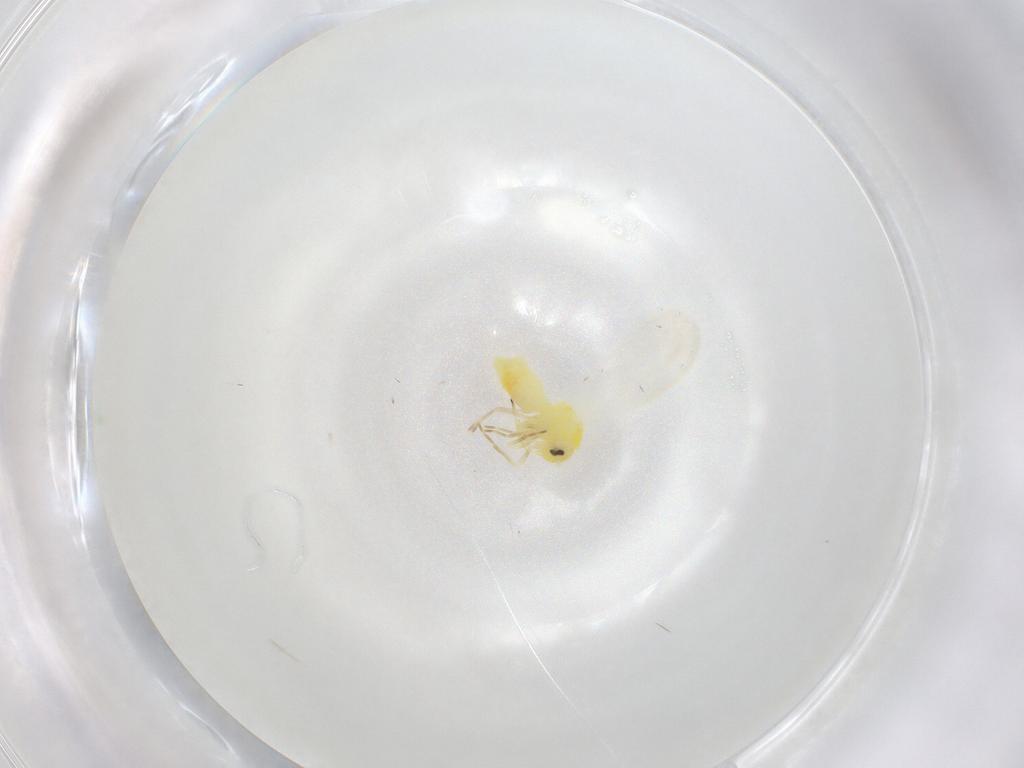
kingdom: Animalia
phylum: Arthropoda
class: Insecta
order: Hemiptera
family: Aleyrodidae
